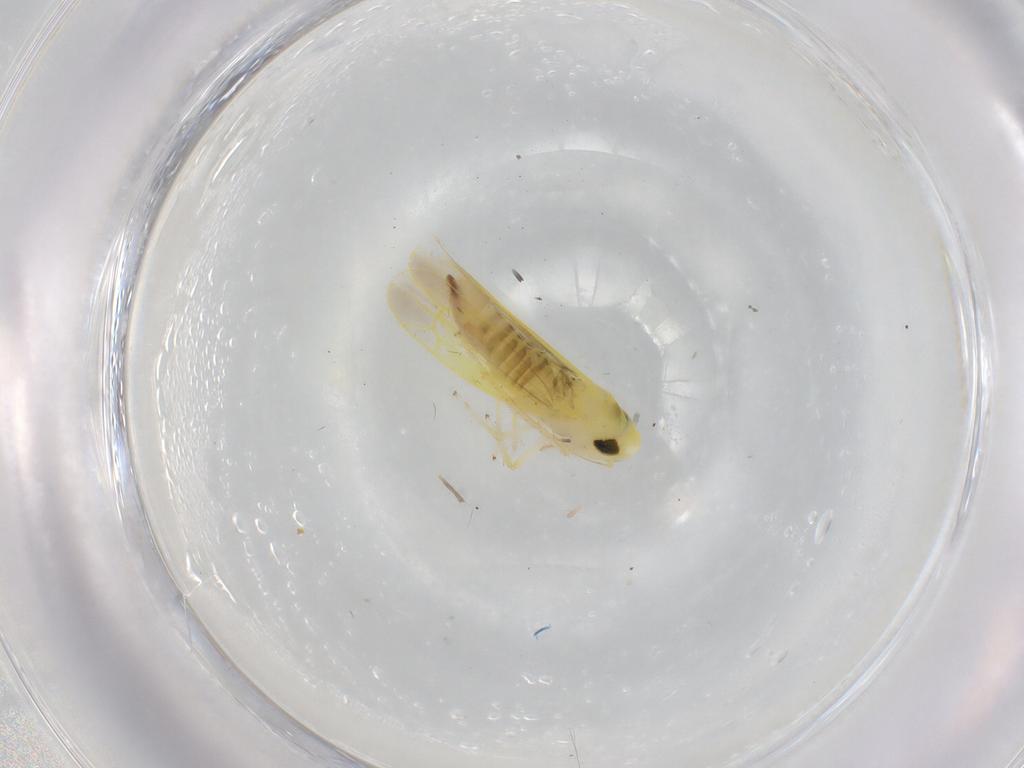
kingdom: Animalia
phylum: Arthropoda
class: Insecta
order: Hemiptera
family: Cicadellidae
